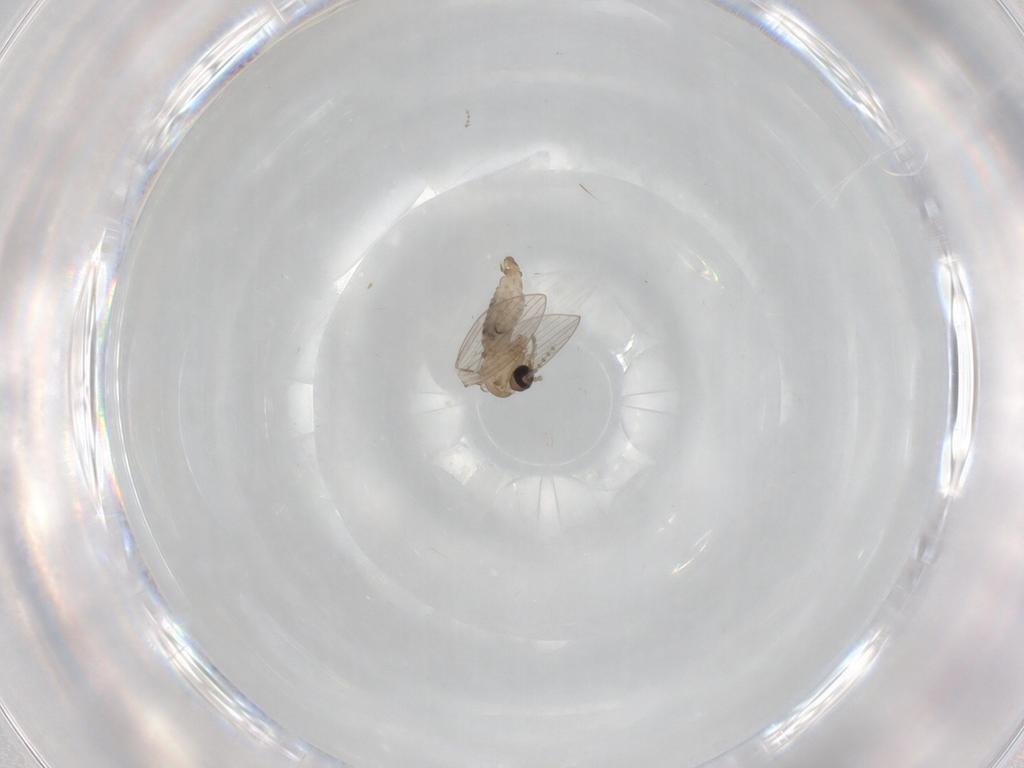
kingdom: Animalia
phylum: Arthropoda
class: Insecta
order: Diptera
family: Psychodidae
